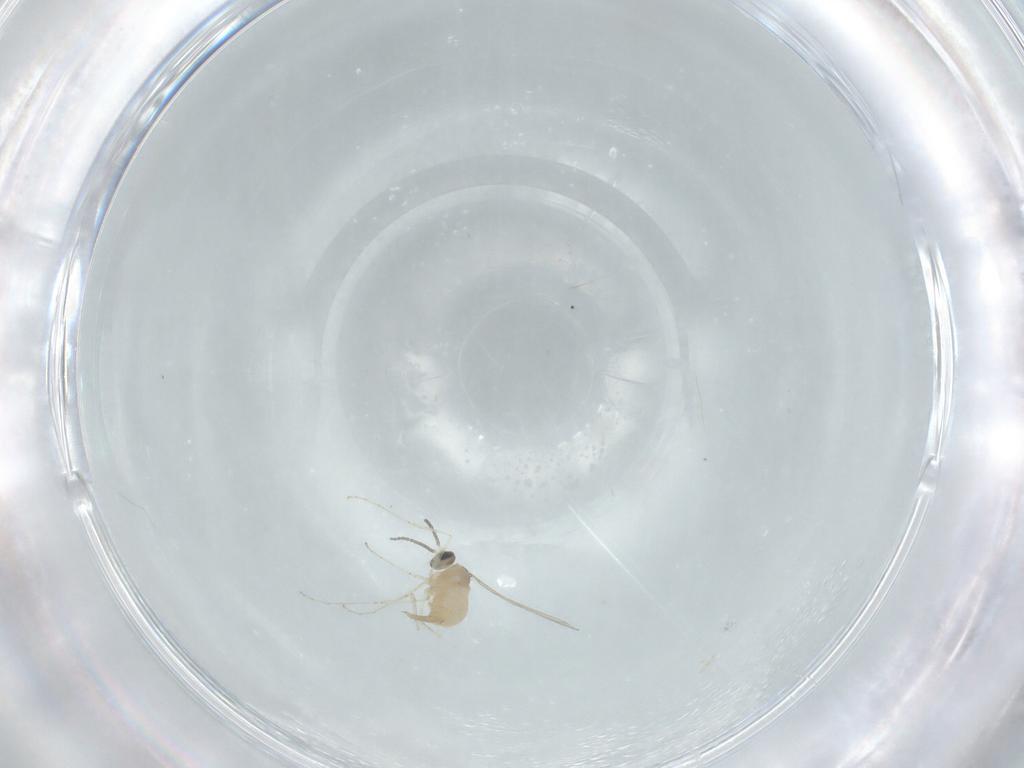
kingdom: Animalia
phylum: Arthropoda
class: Insecta
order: Diptera
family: Cecidomyiidae
